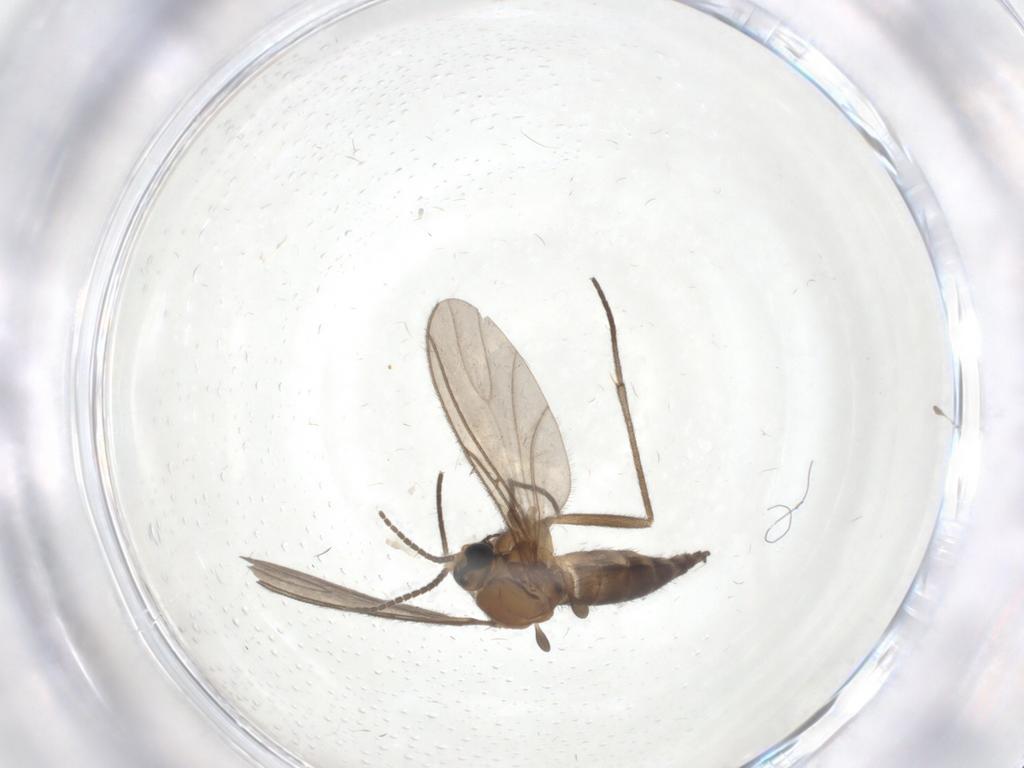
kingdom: Animalia
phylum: Arthropoda
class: Insecta
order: Diptera
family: Sciaridae
